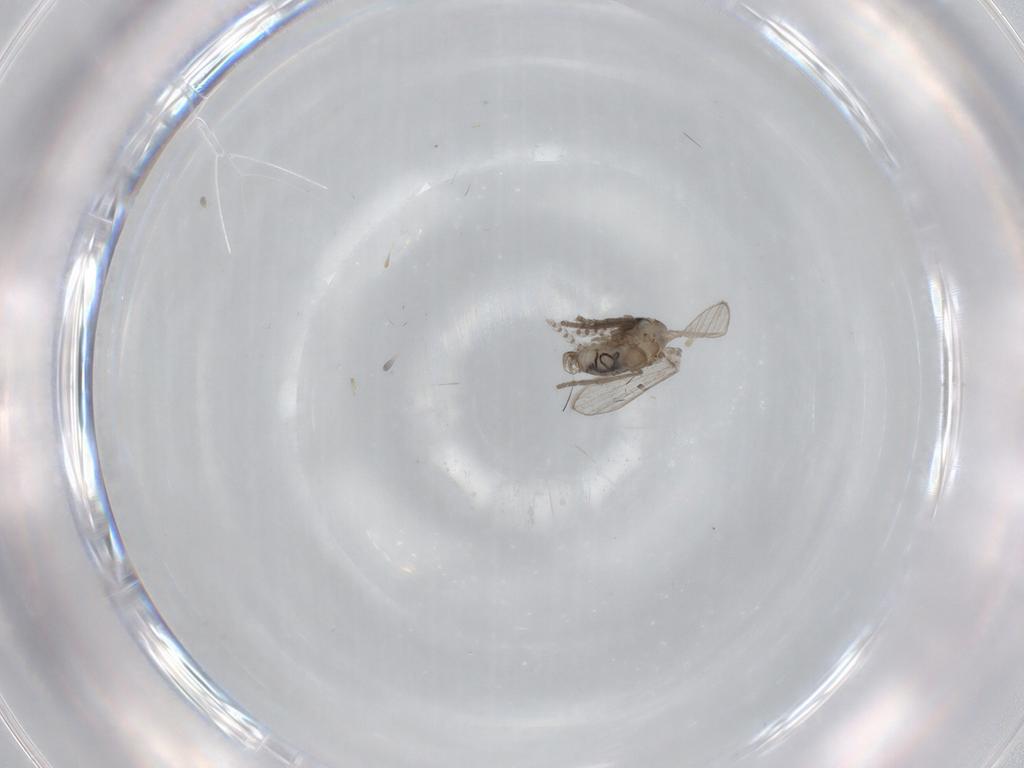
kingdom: Animalia
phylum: Arthropoda
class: Insecta
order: Diptera
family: Psychodidae
